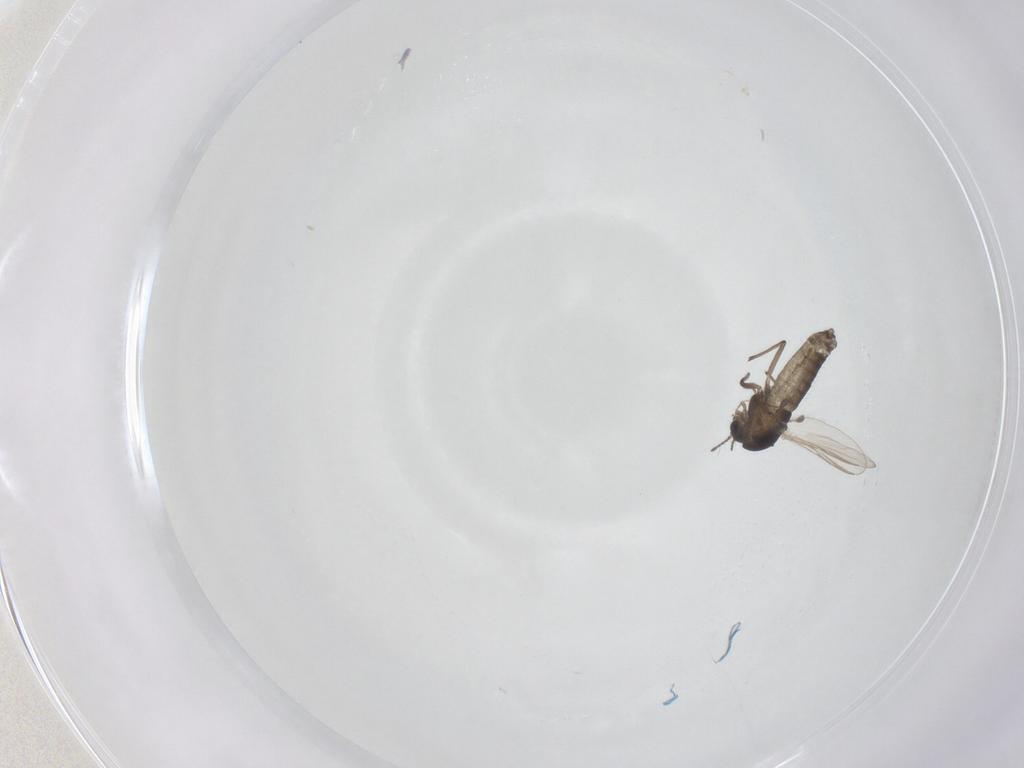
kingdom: Animalia
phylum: Arthropoda
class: Insecta
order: Diptera
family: Chironomidae
